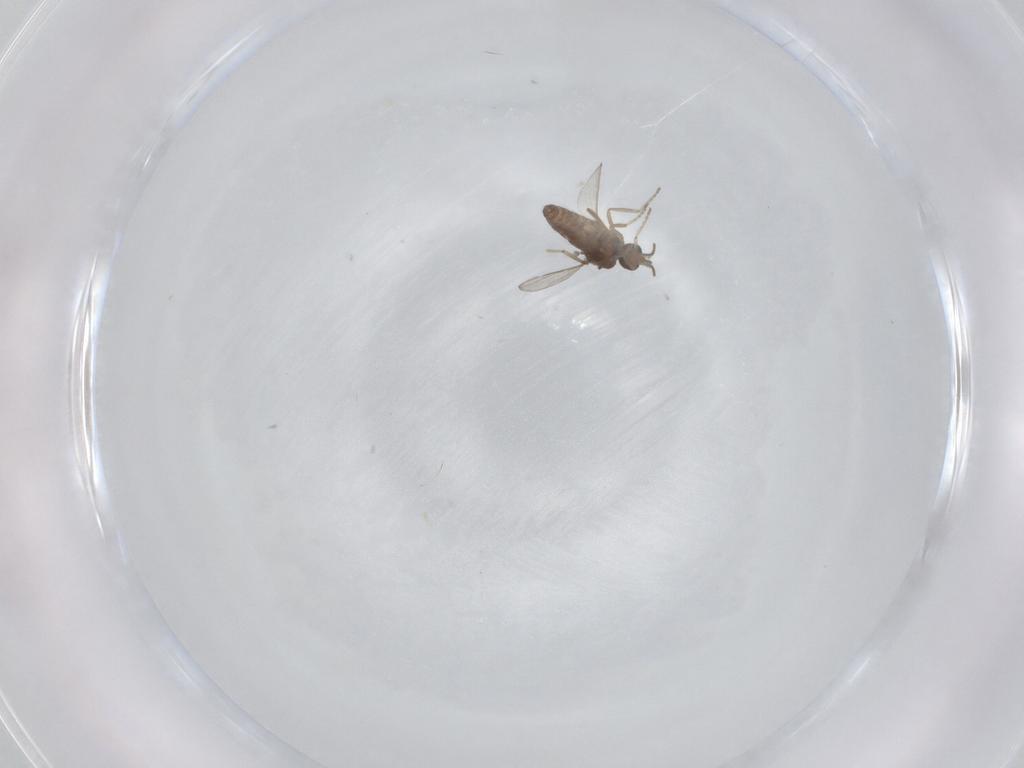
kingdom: Animalia
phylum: Arthropoda
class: Insecta
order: Diptera
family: Ceratopogonidae
